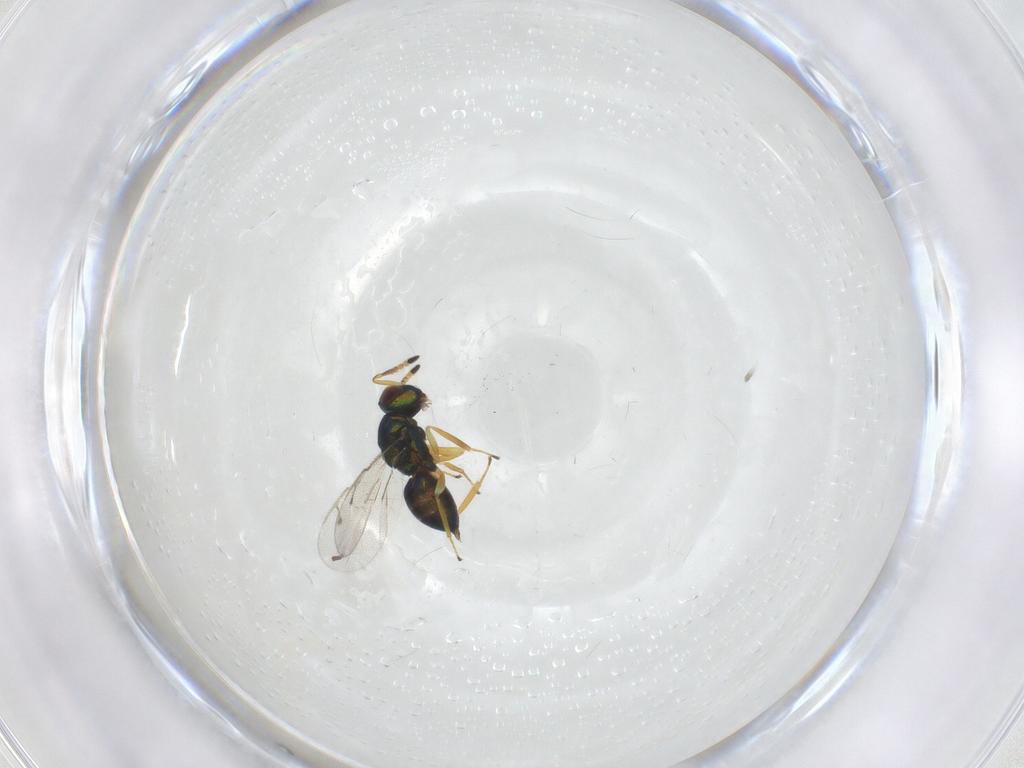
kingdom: Animalia
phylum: Arthropoda
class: Insecta
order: Hymenoptera
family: Pteromalidae
